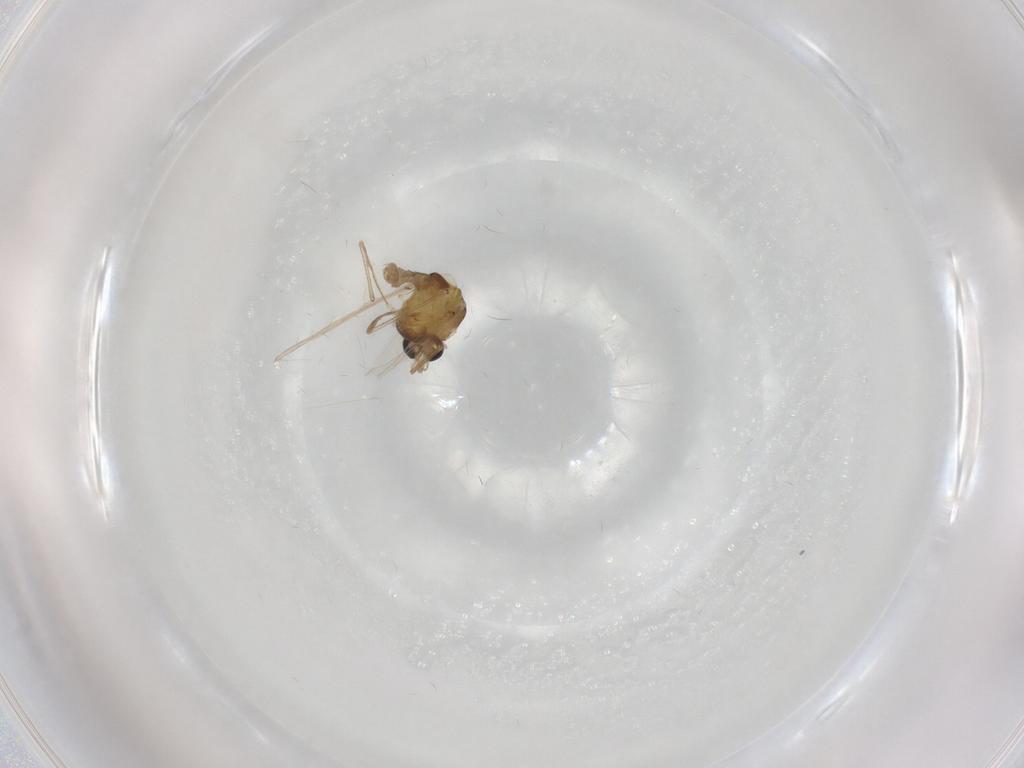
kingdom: Animalia
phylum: Arthropoda
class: Insecta
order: Diptera
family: Chironomidae
